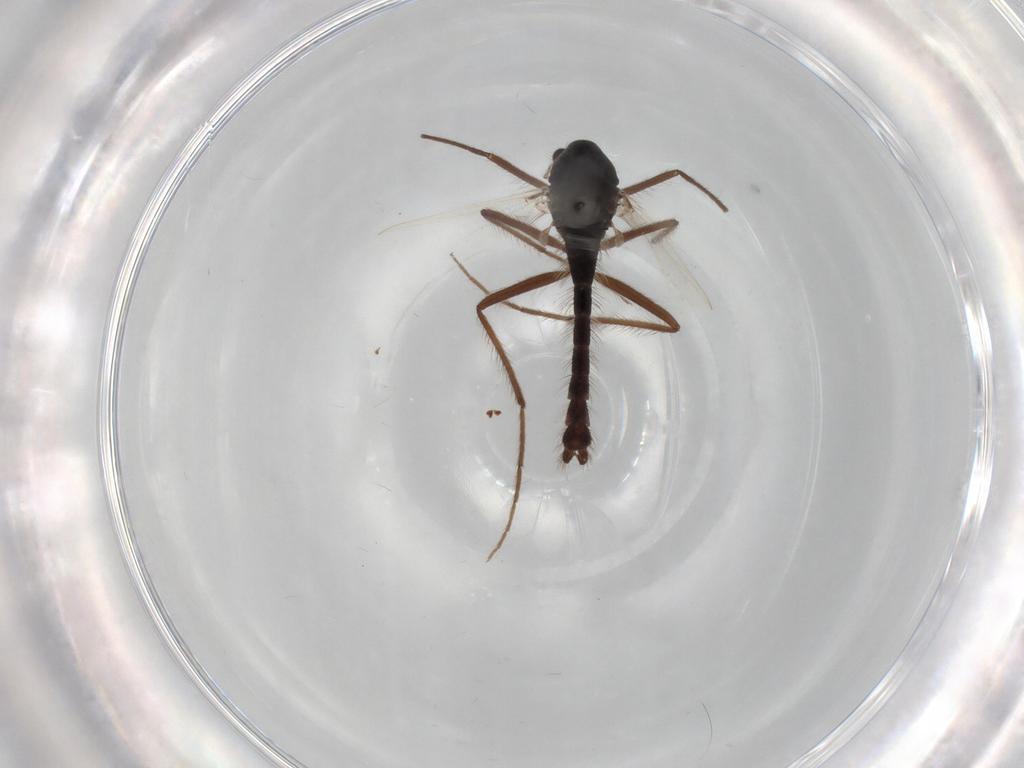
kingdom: Animalia
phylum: Arthropoda
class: Insecta
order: Diptera
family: Hybotidae
